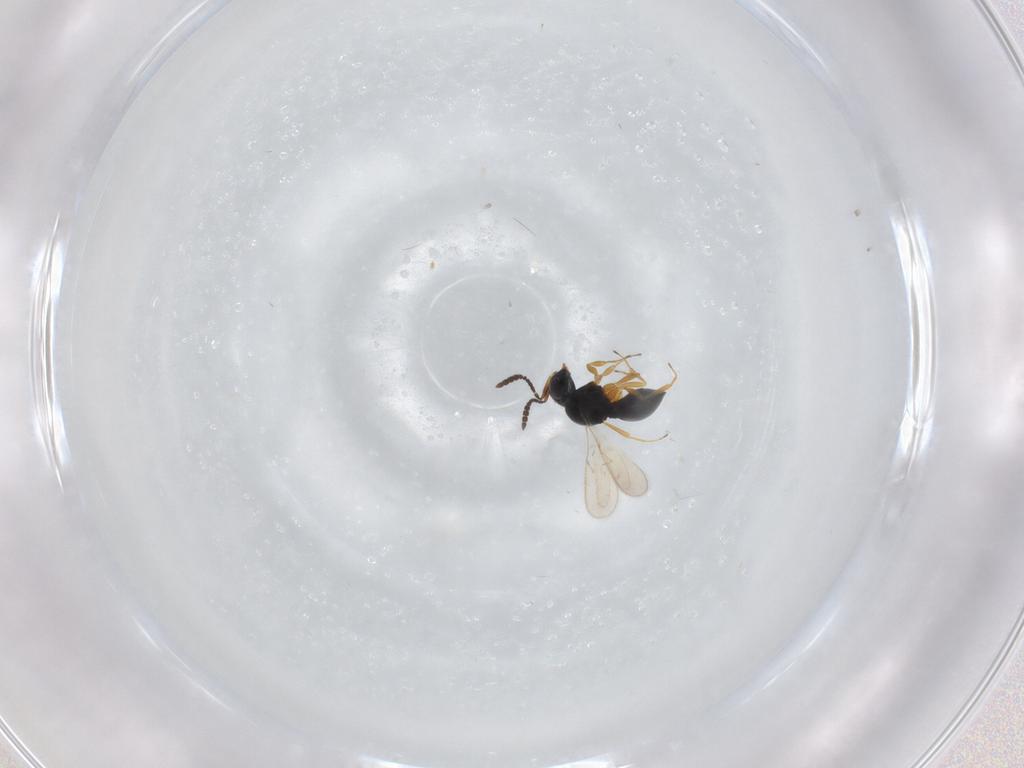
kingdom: Animalia
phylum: Arthropoda
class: Insecta
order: Hymenoptera
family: Scelionidae
